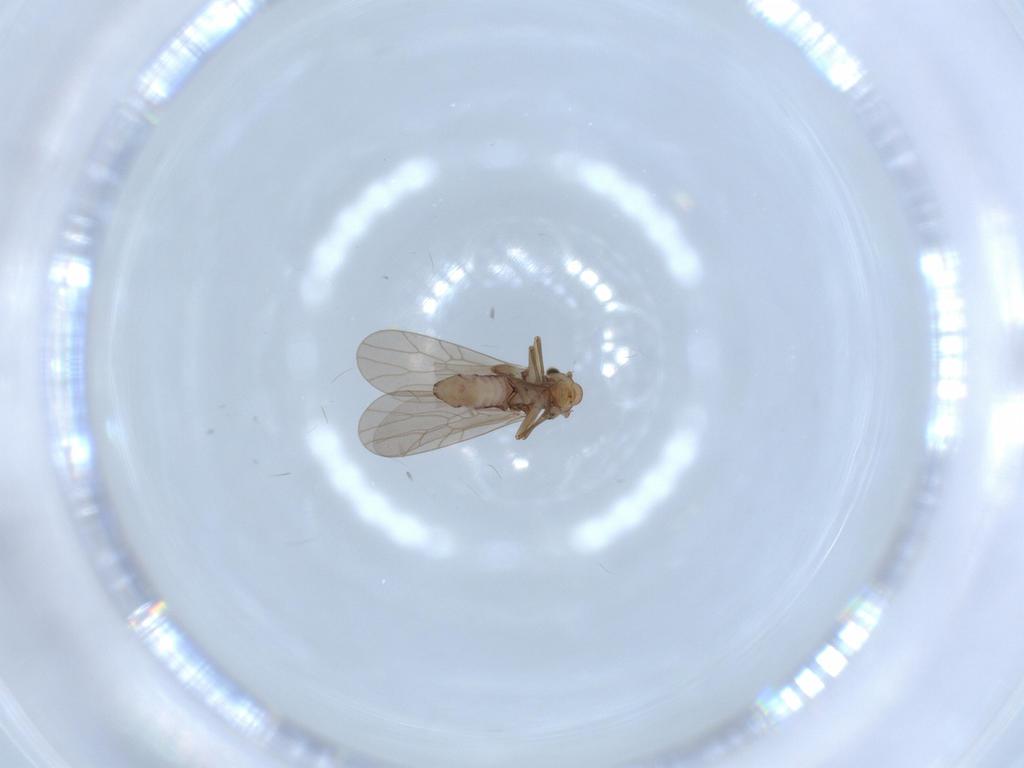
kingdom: Animalia
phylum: Arthropoda
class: Insecta
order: Psocodea
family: Lepidopsocidae
